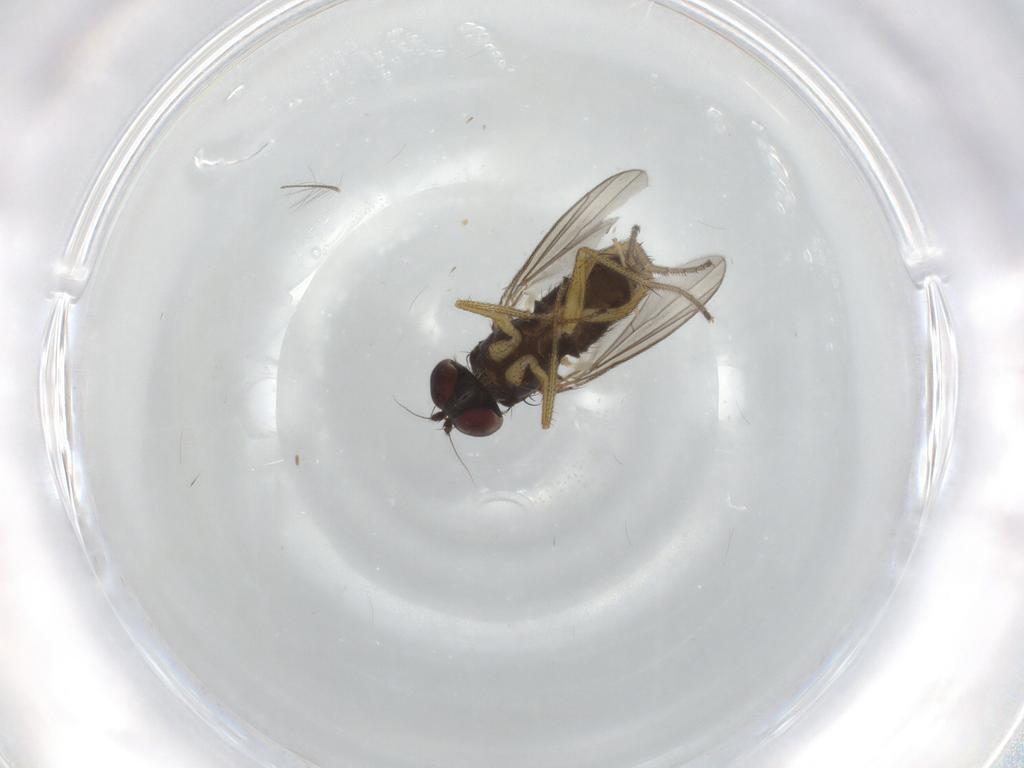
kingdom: Animalia
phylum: Arthropoda
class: Insecta
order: Diptera
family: Chironomidae
